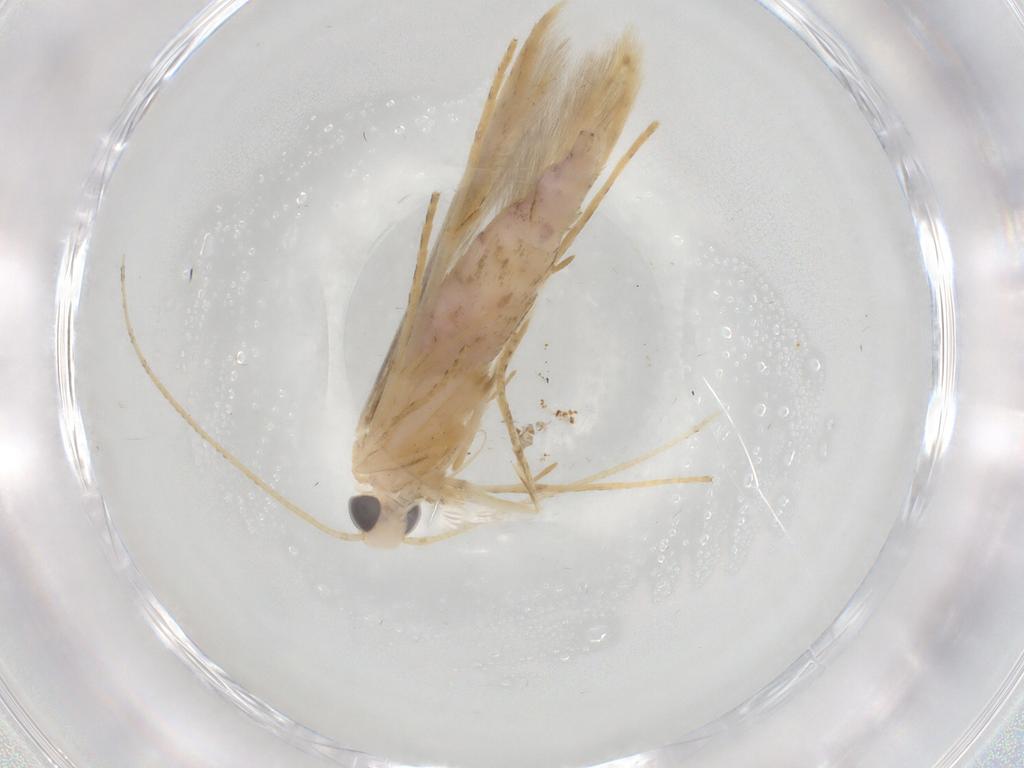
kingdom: Animalia
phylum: Arthropoda
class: Insecta
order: Lepidoptera
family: Batrachedridae
